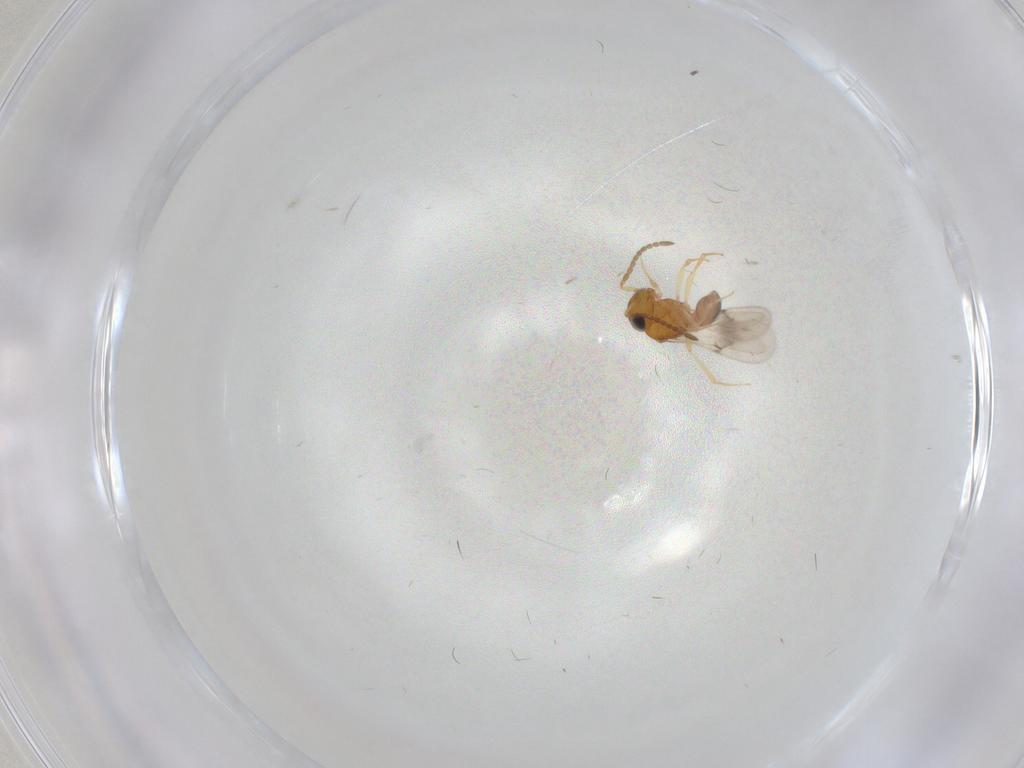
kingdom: Animalia
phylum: Arthropoda
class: Insecta
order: Hymenoptera
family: Scelionidae
